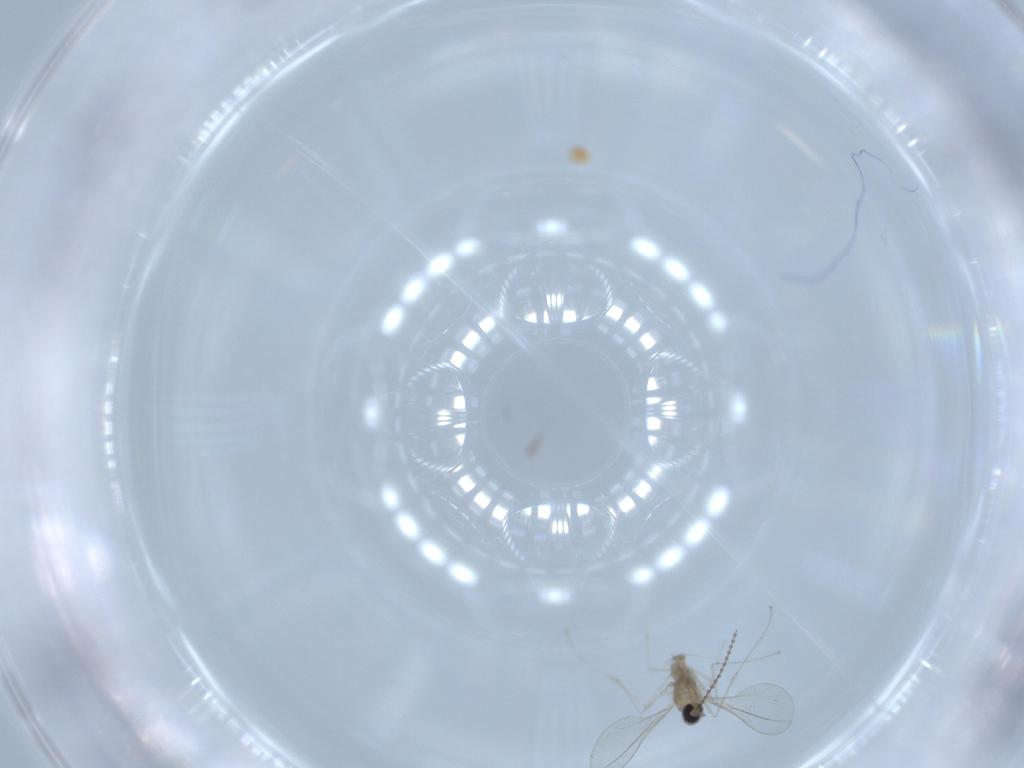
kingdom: Animalia
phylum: Arthropoda
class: Insecta
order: Diptera
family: Cecidomyiidae
